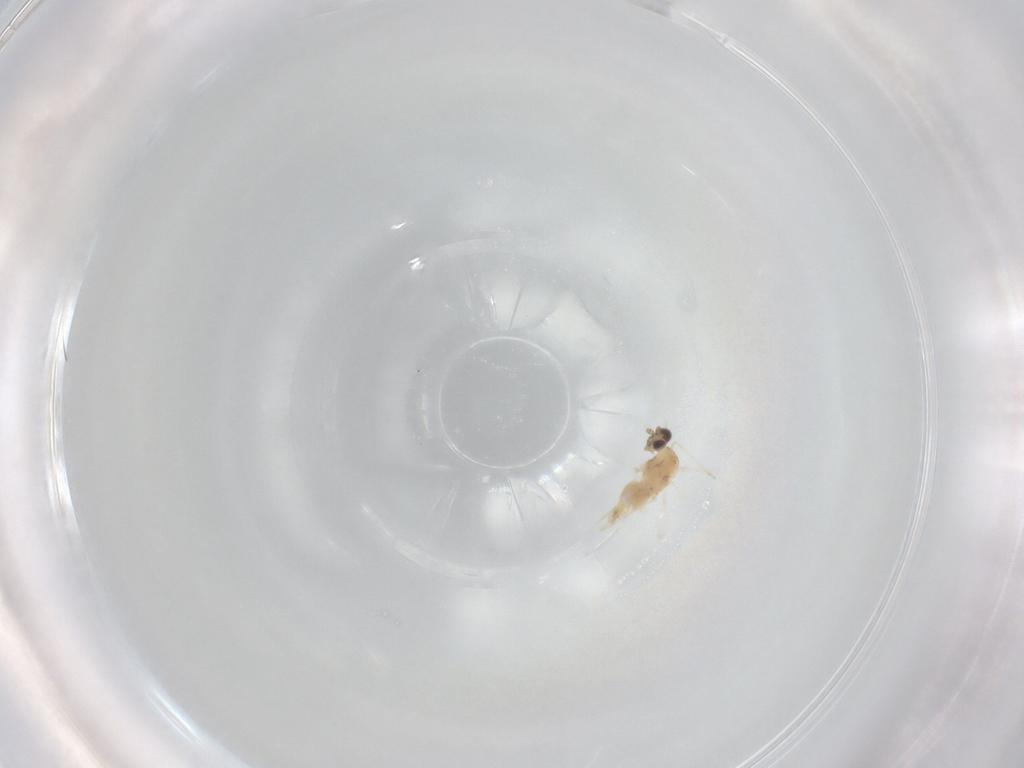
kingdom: Animalia
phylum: Arthropoda
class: Insecta
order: Diptera
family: Cecidomyiidae
